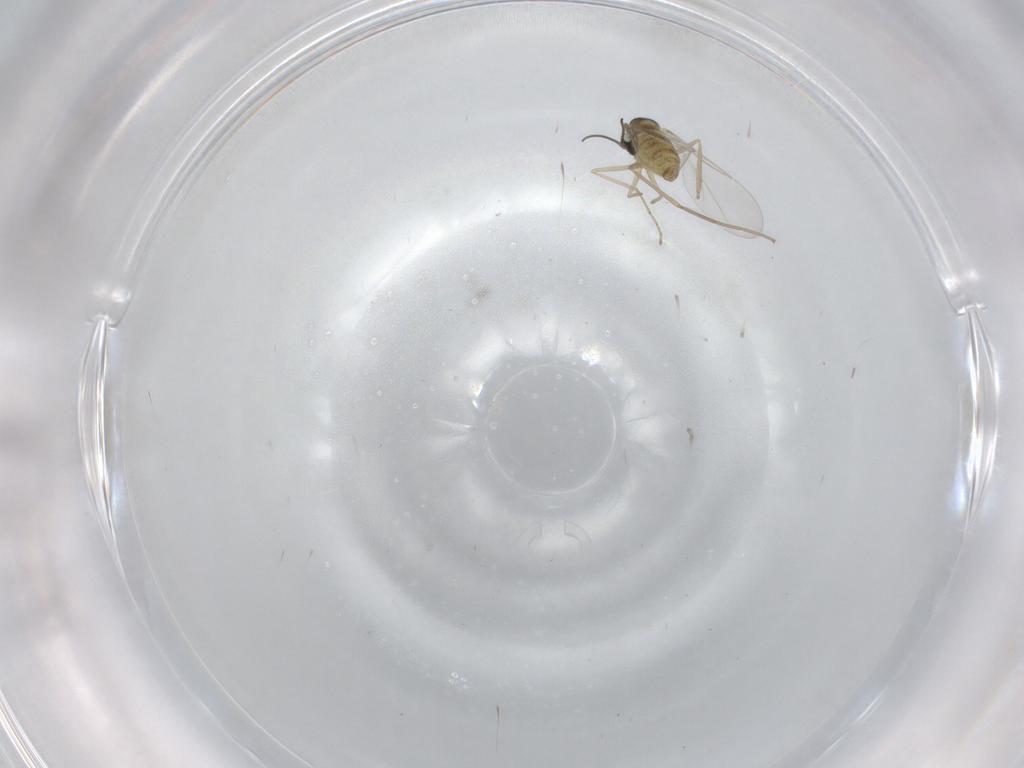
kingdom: Animalia
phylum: Arthropoda
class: Insecta
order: Diptera
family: Cecidomyiidae
